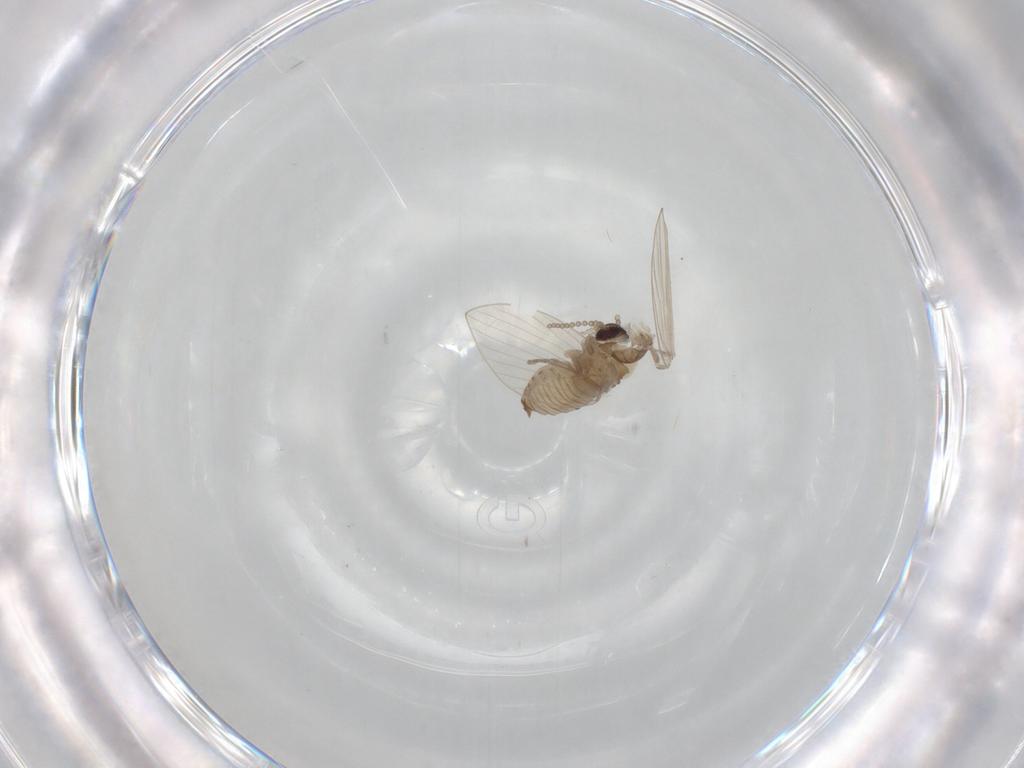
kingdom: Animalia
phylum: Arthropoda
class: Insecta
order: Diptera
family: Psychodidae
